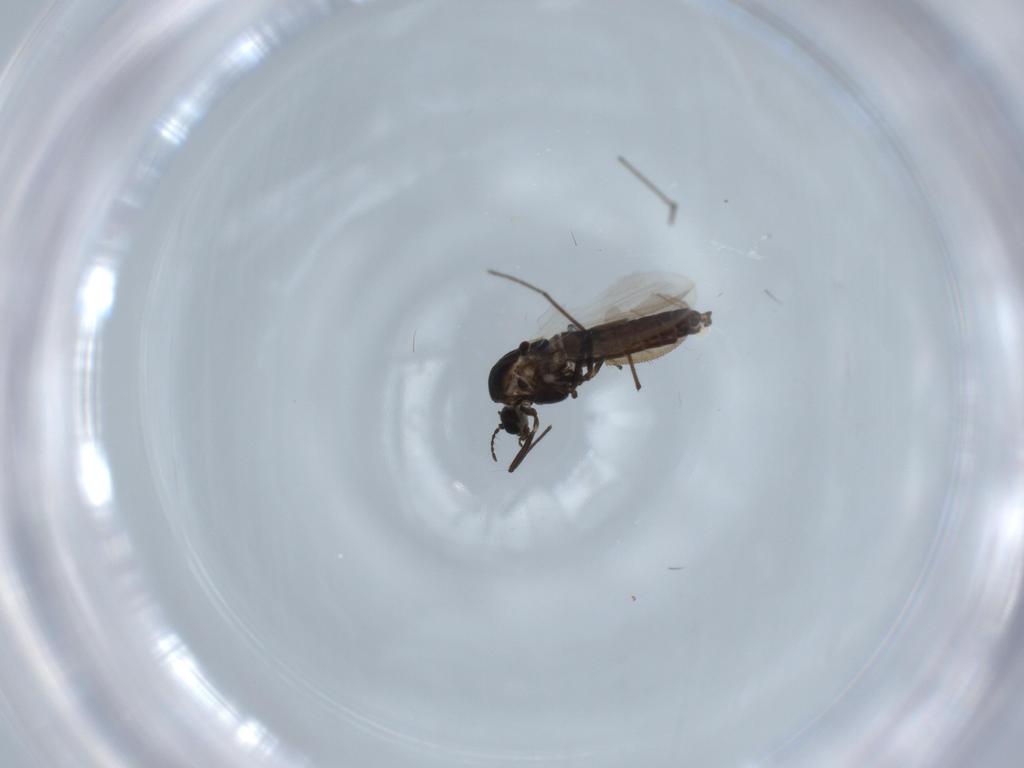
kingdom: Animalia
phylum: Arthropoda
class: Insecta
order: Diptera
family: Chironomidae
